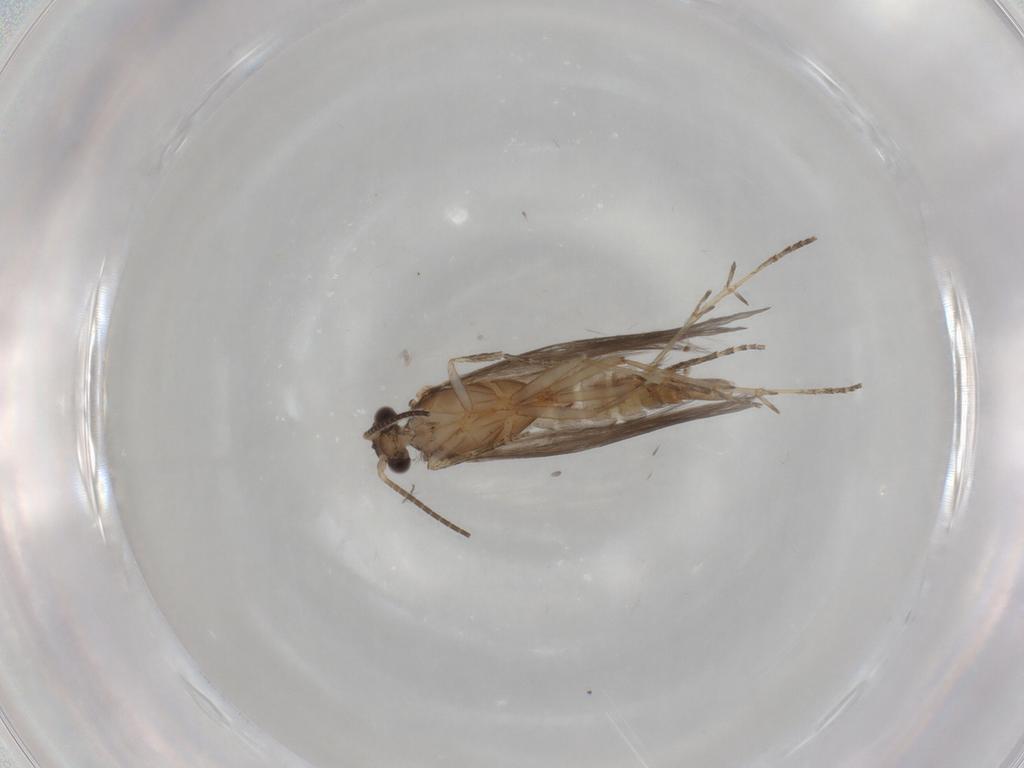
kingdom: Animalia
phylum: Arthropoda
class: Insecta
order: Trichoptera
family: Hydroptilidae
